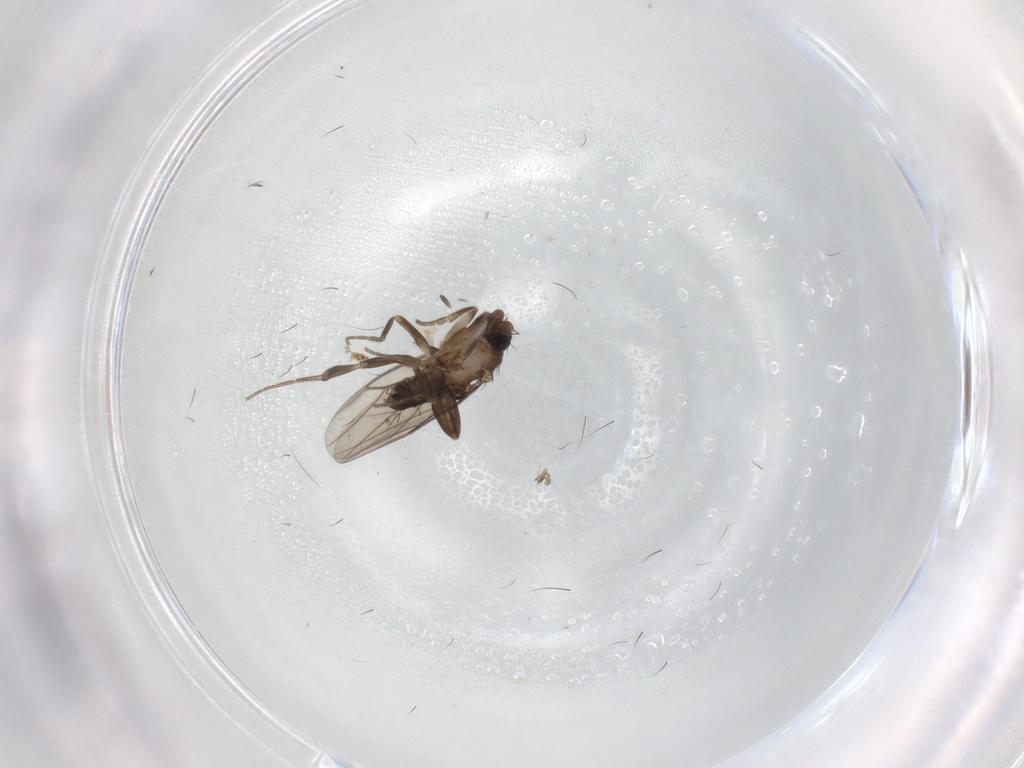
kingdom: Animalia
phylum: Arthropoda
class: Insecta
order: Diptera
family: Phoridae
